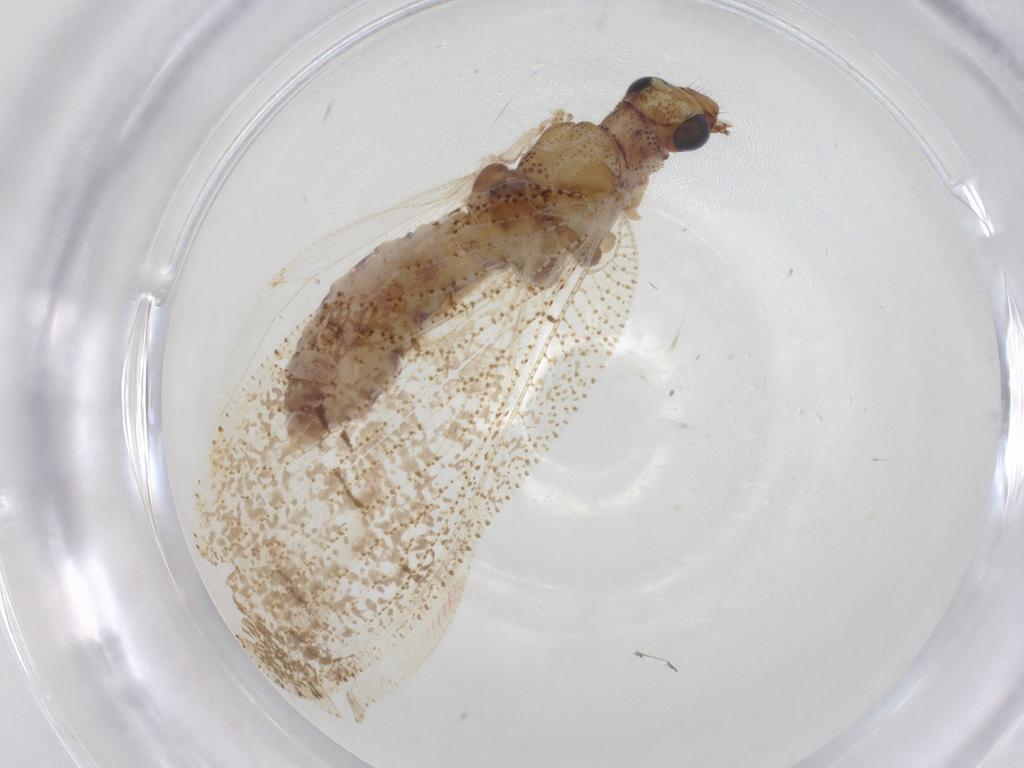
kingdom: Animalia
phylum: Arthropoda
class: Insecta
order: Neuroptera
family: Hemerobiidae
